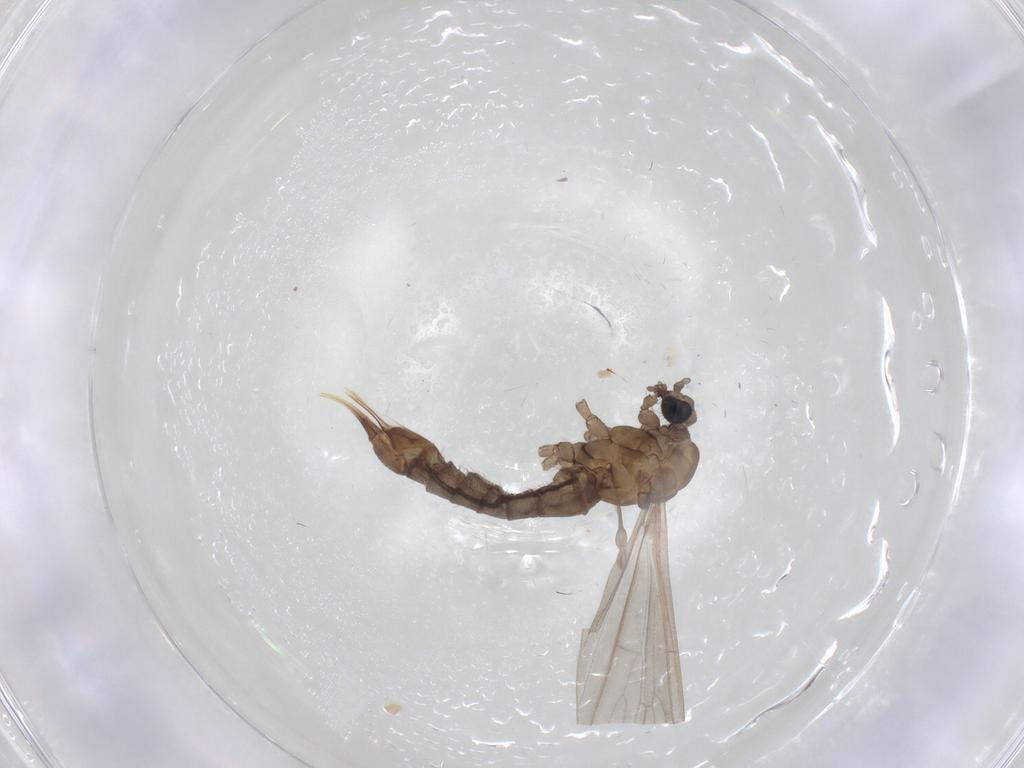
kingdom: Animalia
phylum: Arthropoda
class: Insecta
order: Diptera
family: Limoniidae
